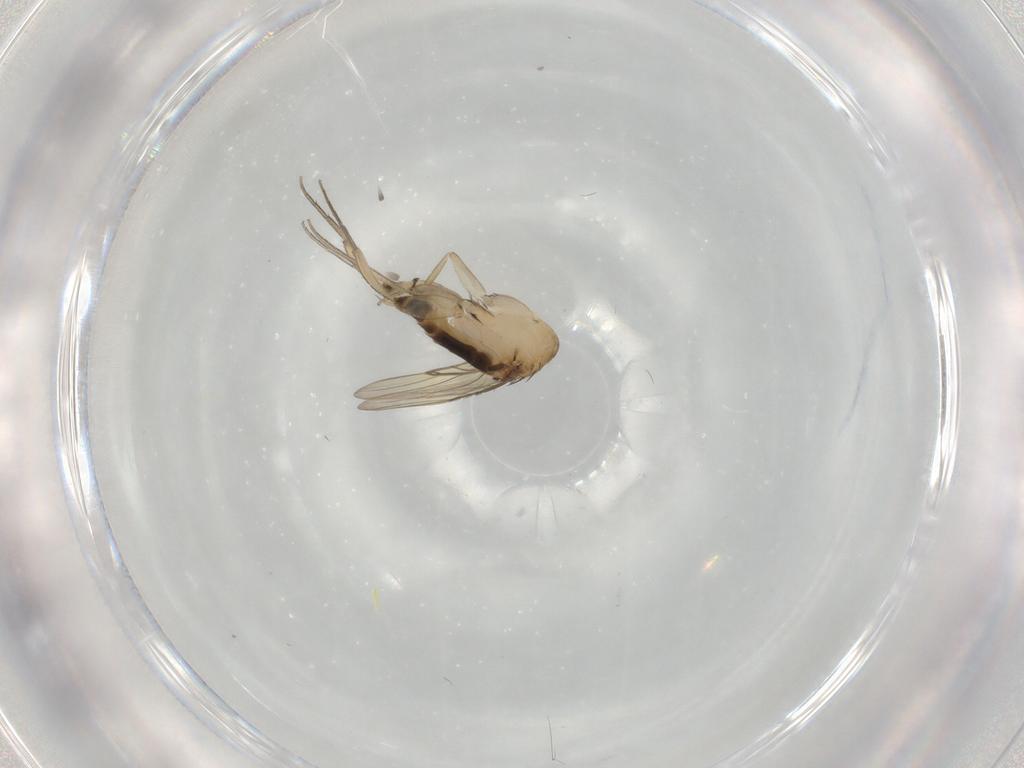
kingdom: Animalia
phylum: Arthropoda
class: Insecta
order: Diptera
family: Phoridae
